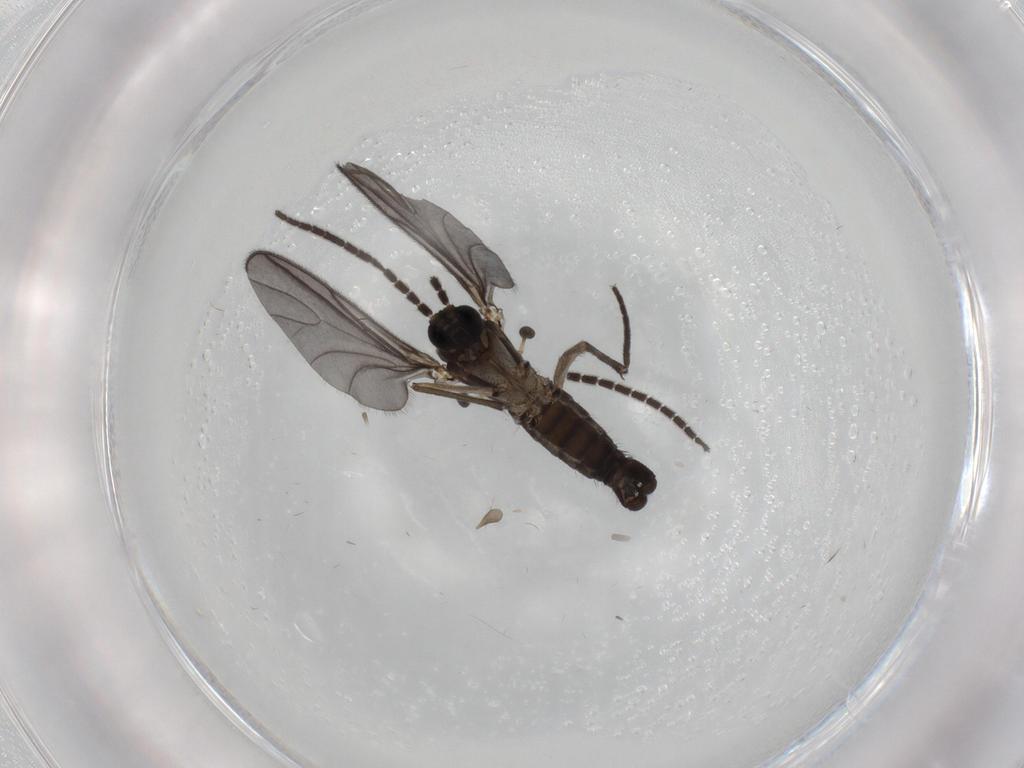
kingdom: Animalia
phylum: Arthropoda
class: Insecta
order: Diptera
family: Sciaridae
